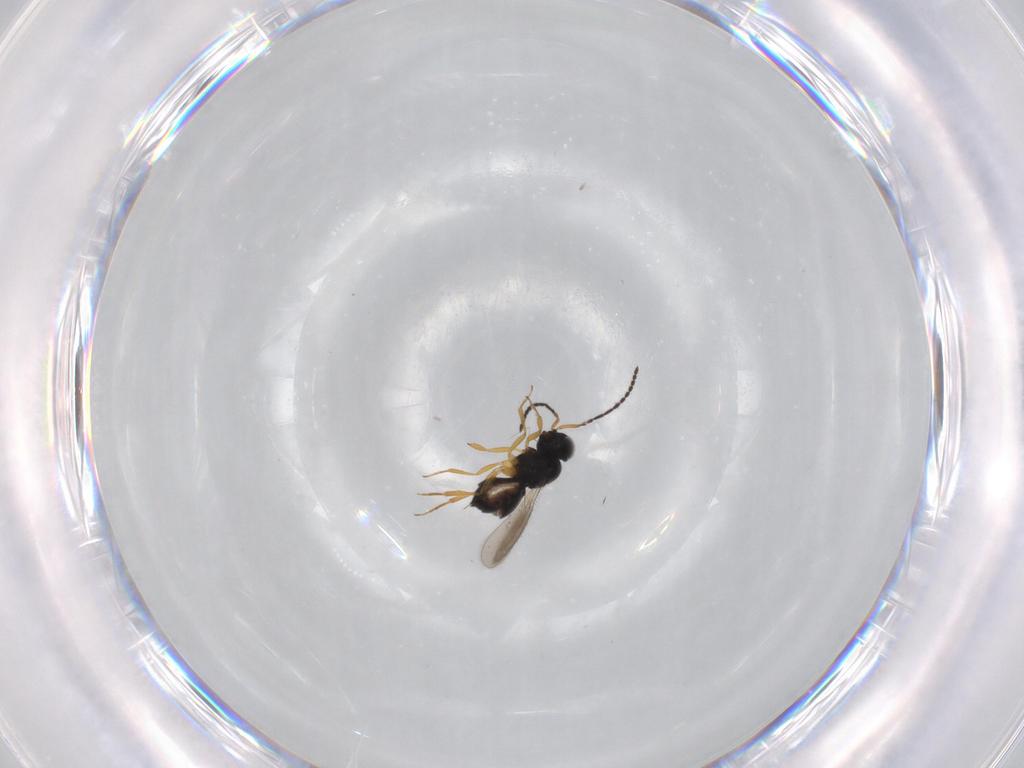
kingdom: Animalia
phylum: Arthropoda
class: Insecta
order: Hymenoptera
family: Scelionidae
